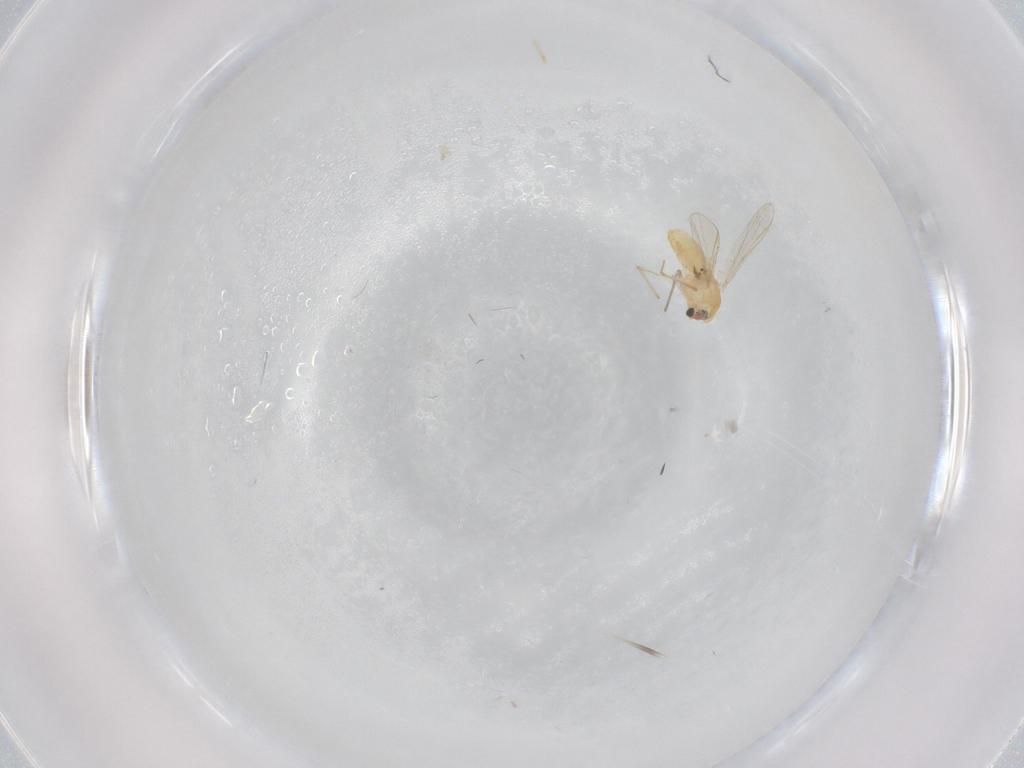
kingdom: Animalia
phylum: Arthropoda
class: Insecta
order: Diptera
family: Chironomidae
